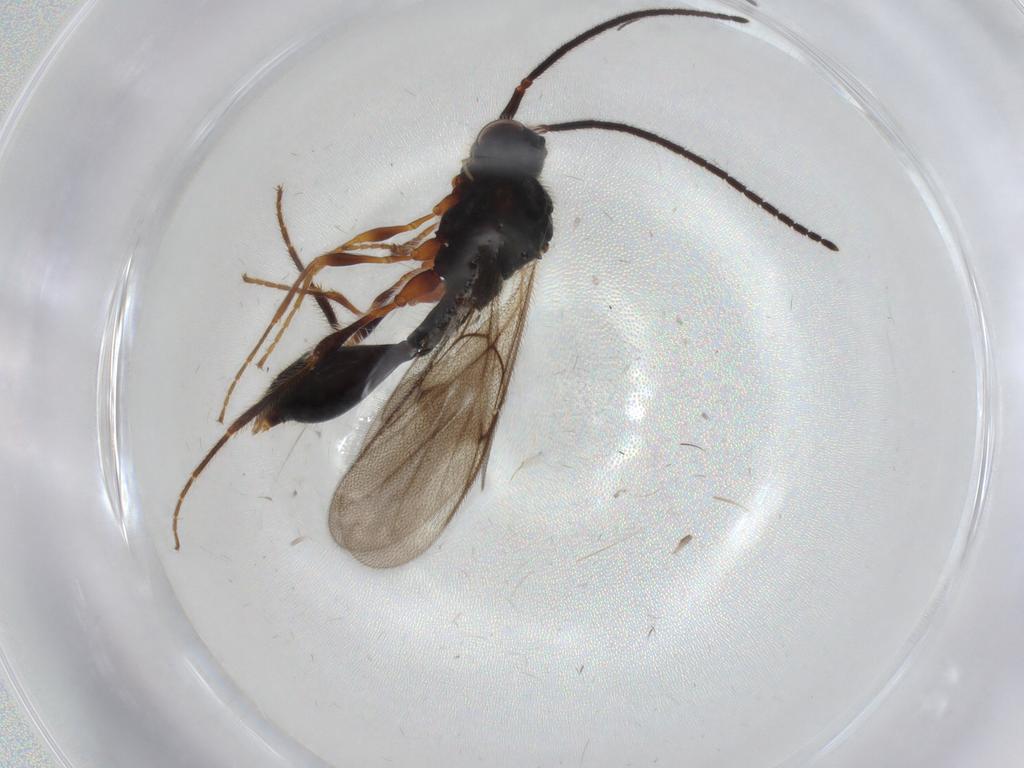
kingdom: Animalia
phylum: Arthropoda
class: Insecta
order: Hymenoptera
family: Diapriidae
